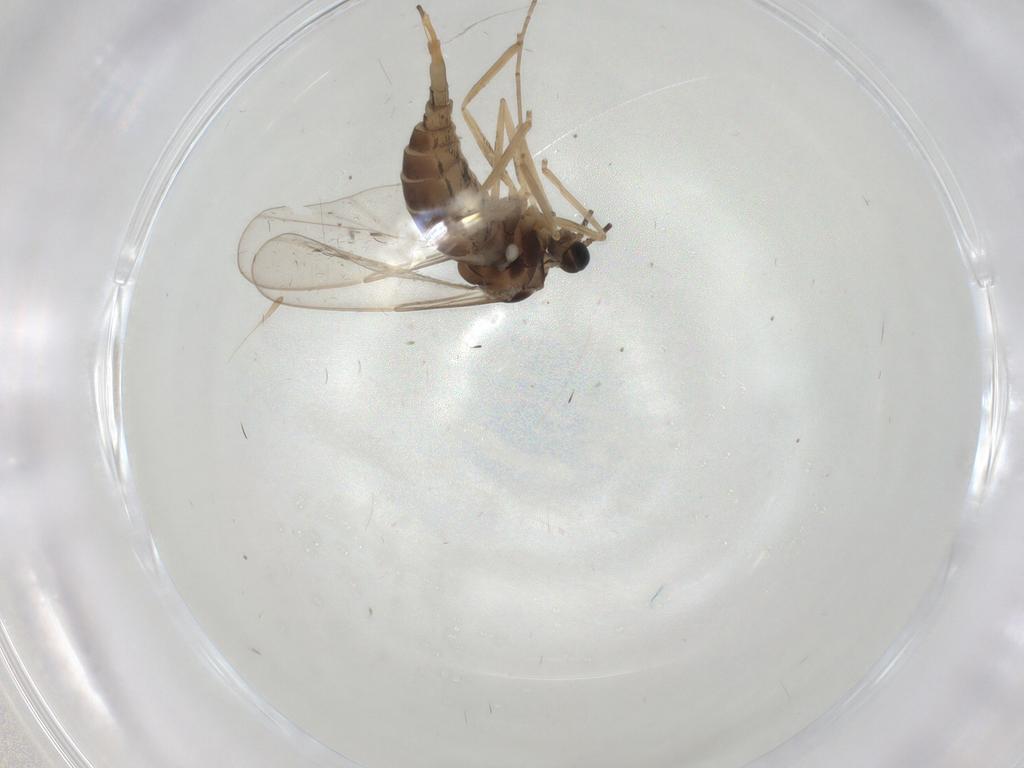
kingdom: Animalia
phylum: Arthropoda
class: Insecta
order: Diptera
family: Cecidomyiidae
